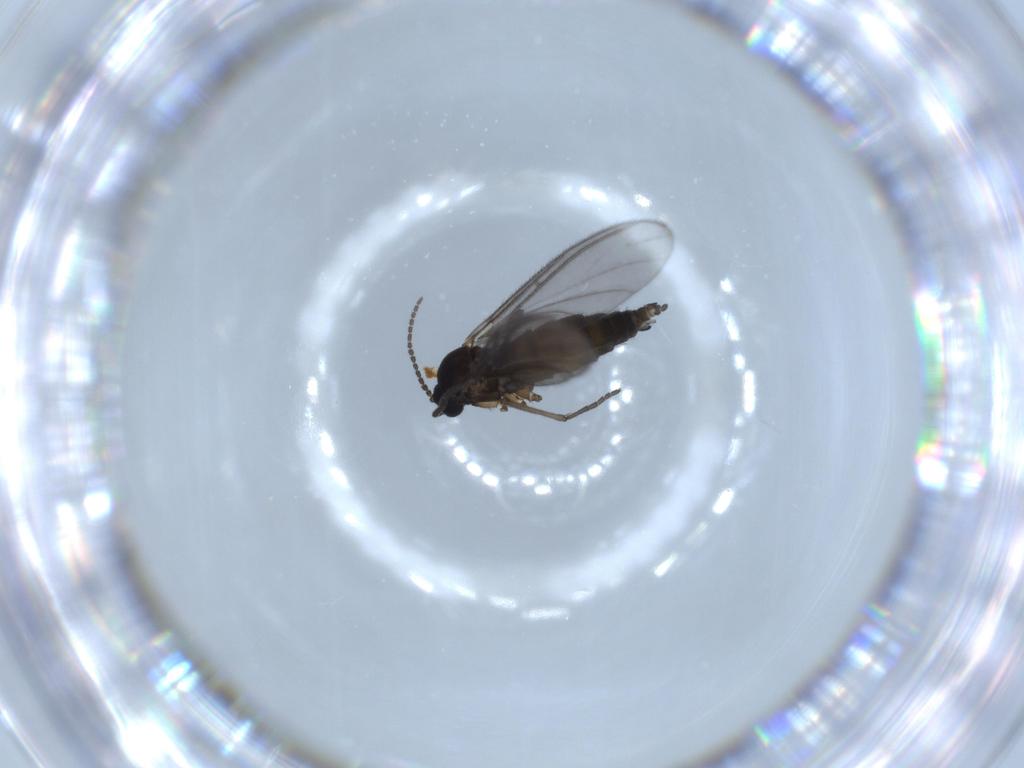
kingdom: Animalia
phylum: Arthropoda
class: Insecta
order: Diptera
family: Sciaridae
